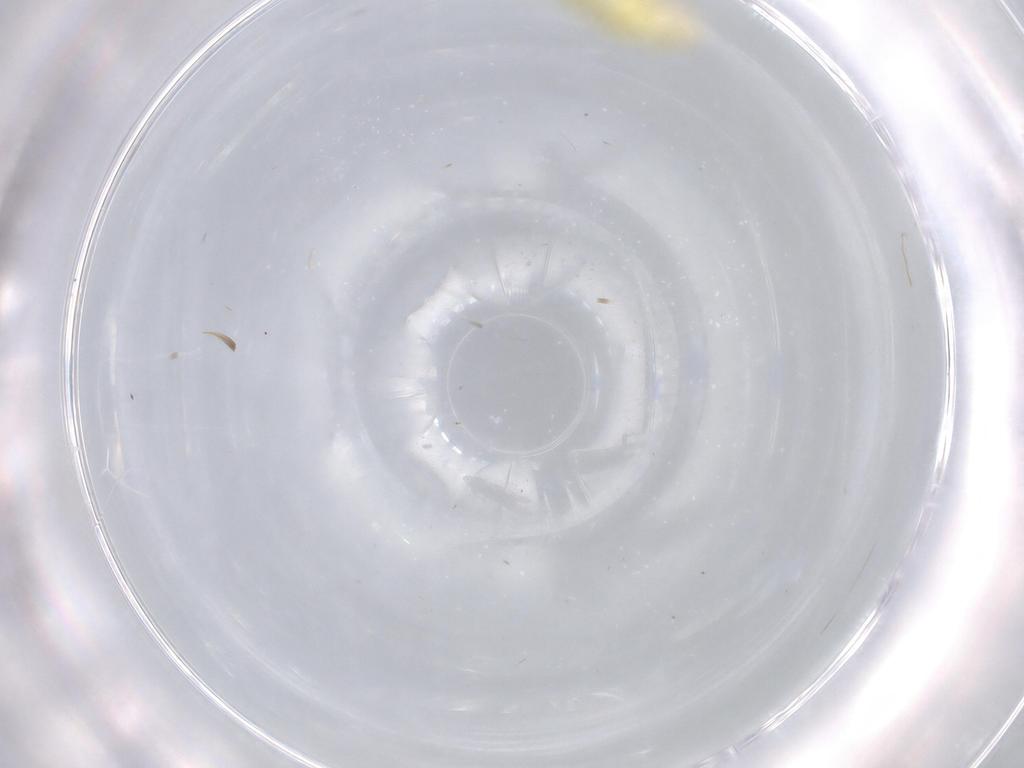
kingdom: Animalia
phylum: Arthropoda
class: Insecta
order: Hemiptera
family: Cicadellidae
